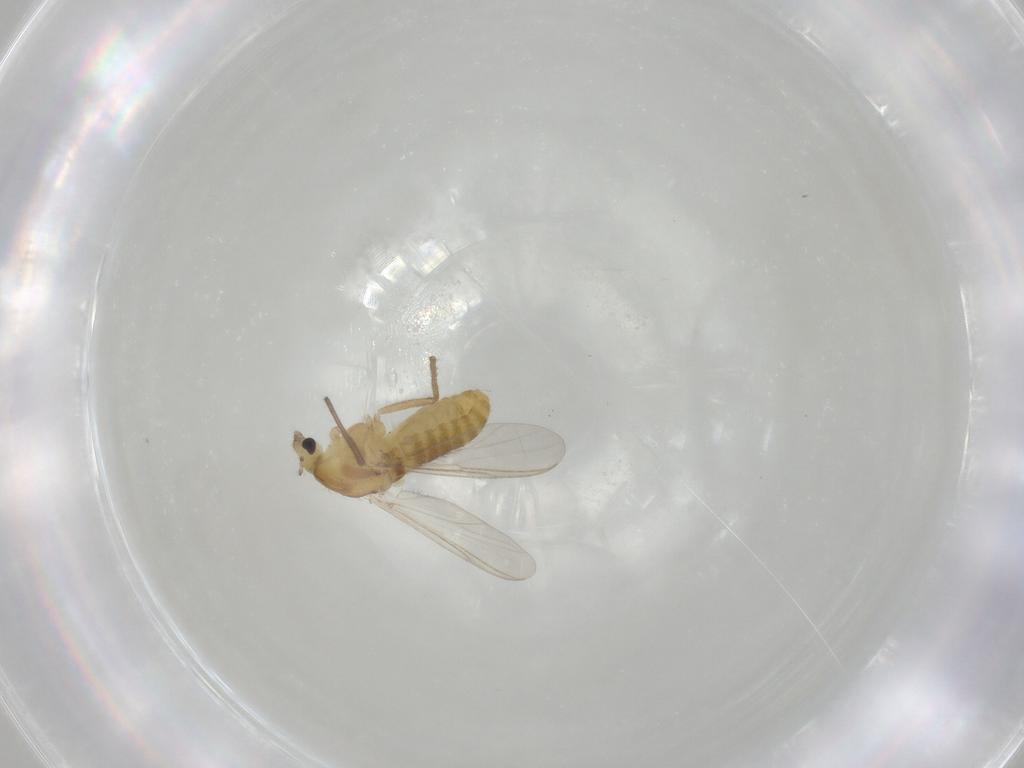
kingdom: Animalia
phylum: Arthropoda
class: Insecta
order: Diptera
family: Chironomidae
